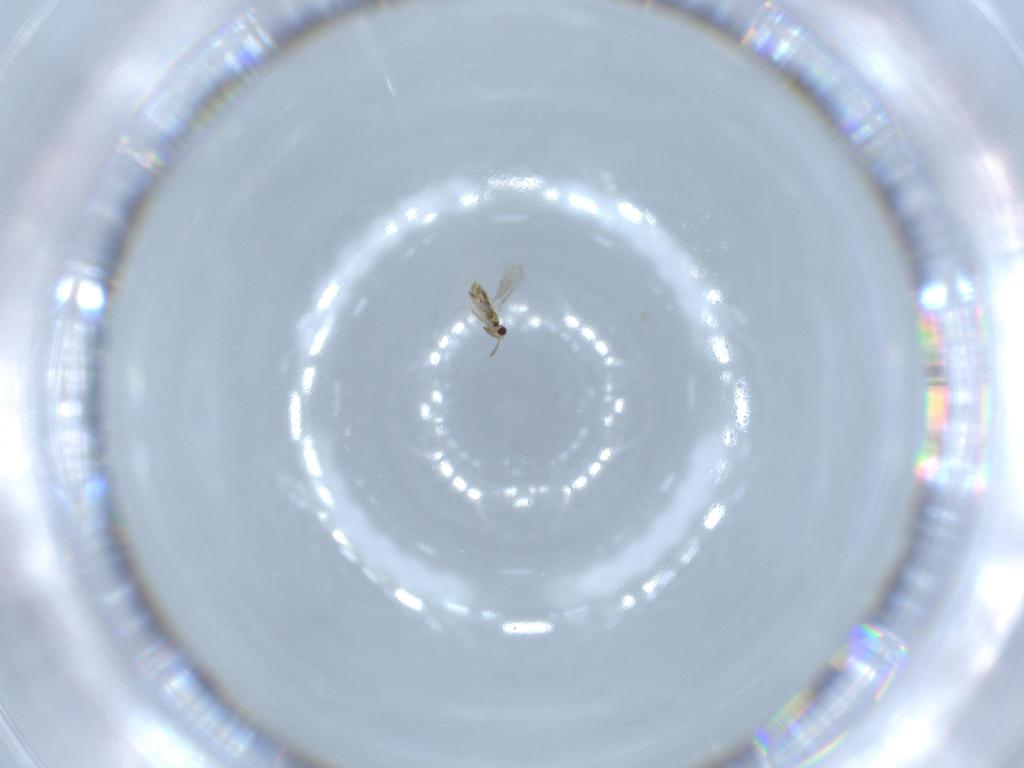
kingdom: Animalia
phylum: Arthropoda
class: Insecta
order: Hymenoptera
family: Aphelinidae
